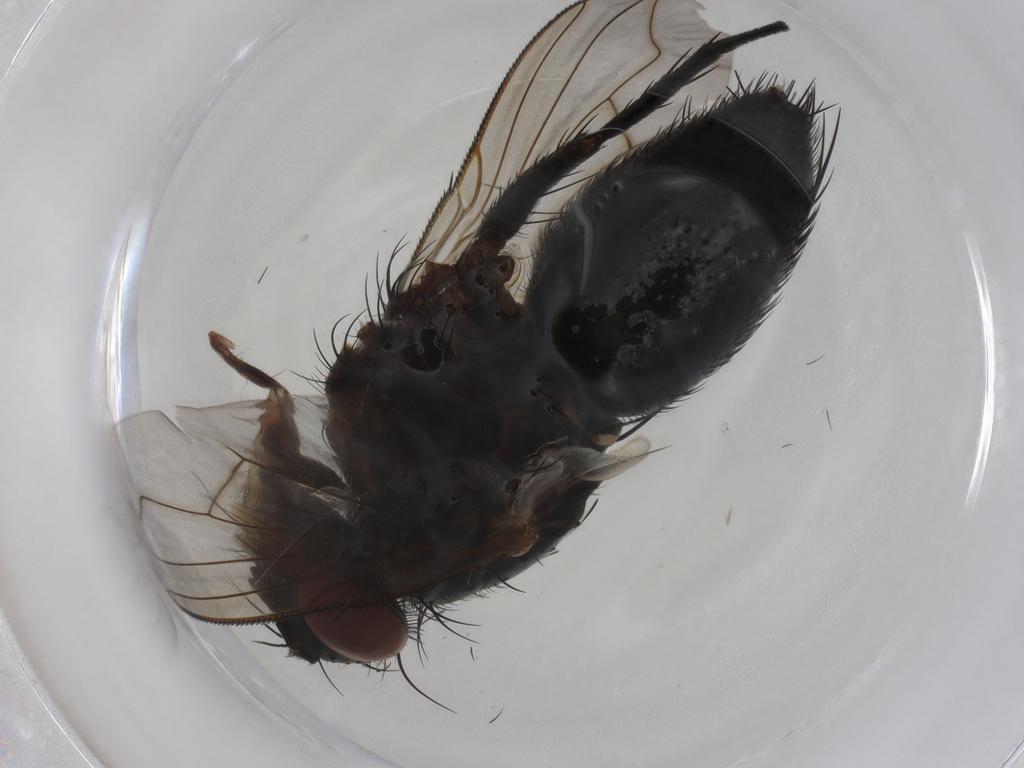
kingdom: Animalia
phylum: Arthropoda
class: Insecta
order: Diptera
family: Tachinidae
